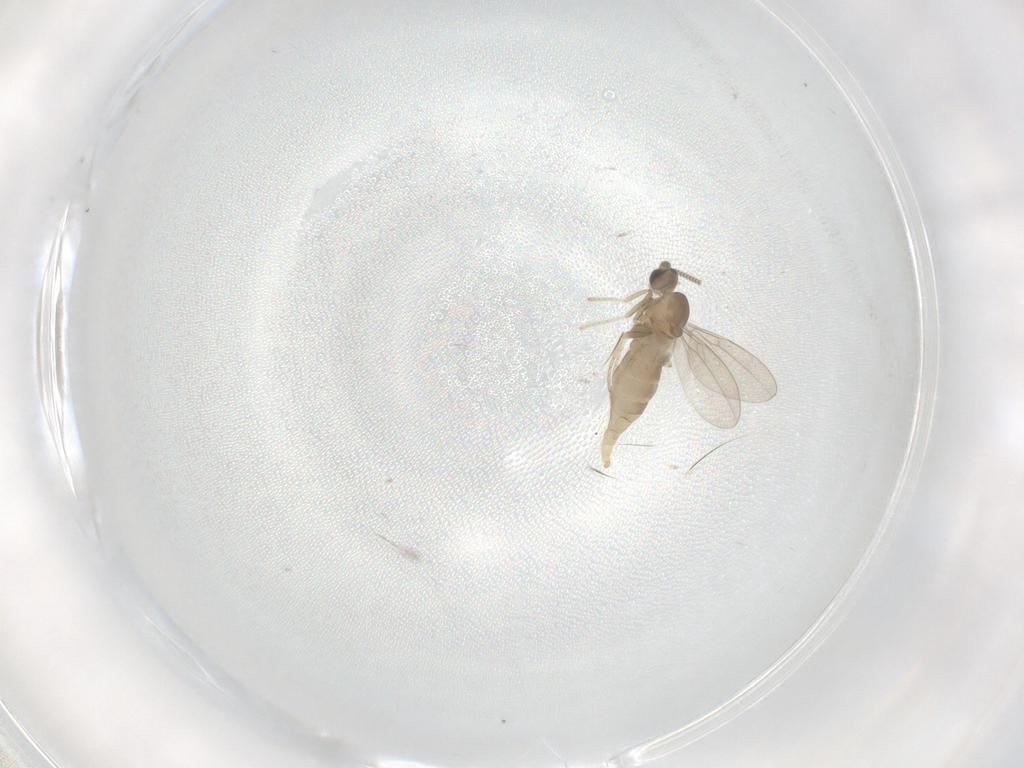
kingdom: Animalia
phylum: Arthropoda
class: Insecta
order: Diptera
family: Cecidomyiidae
